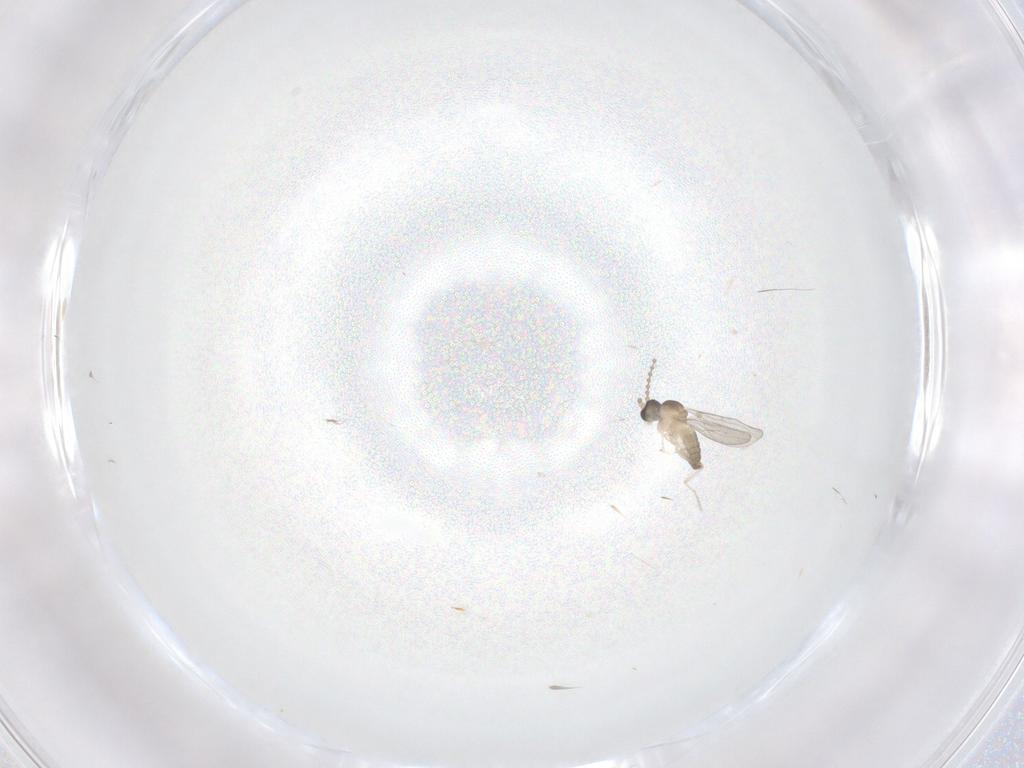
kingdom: Animalia
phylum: Arthropoda
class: Insecta
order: Diptera
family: Cecidomyiidae
